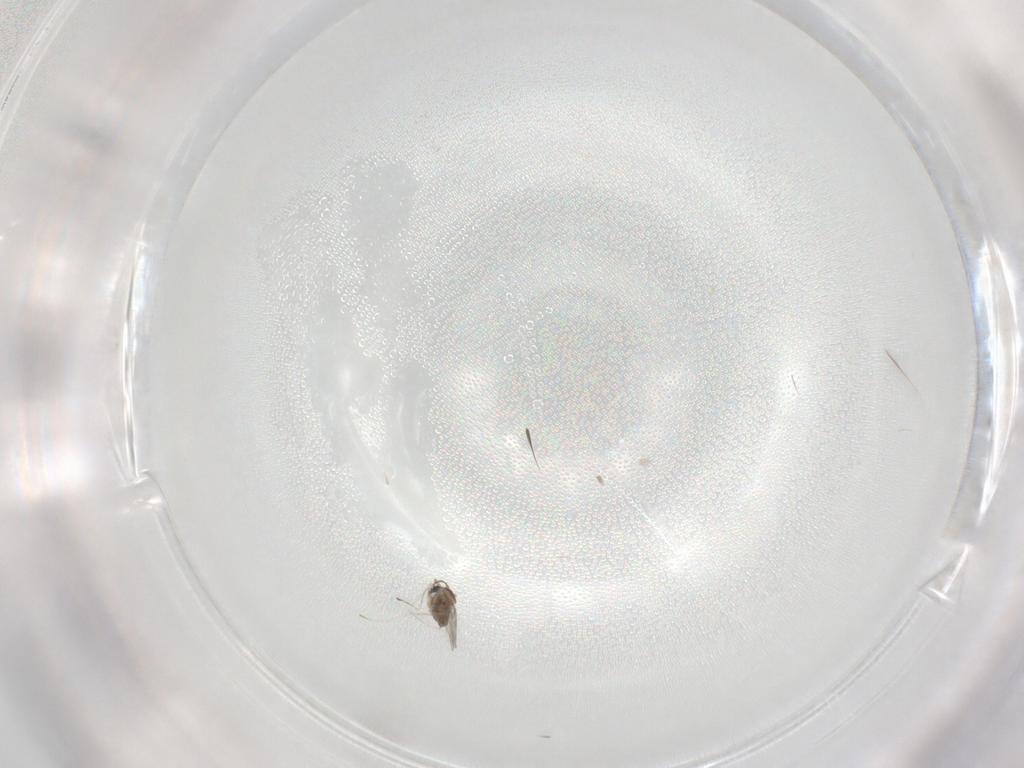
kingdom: Animalia
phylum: Arthropoda
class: Insecta
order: Diptera
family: Cecidomyiidae
